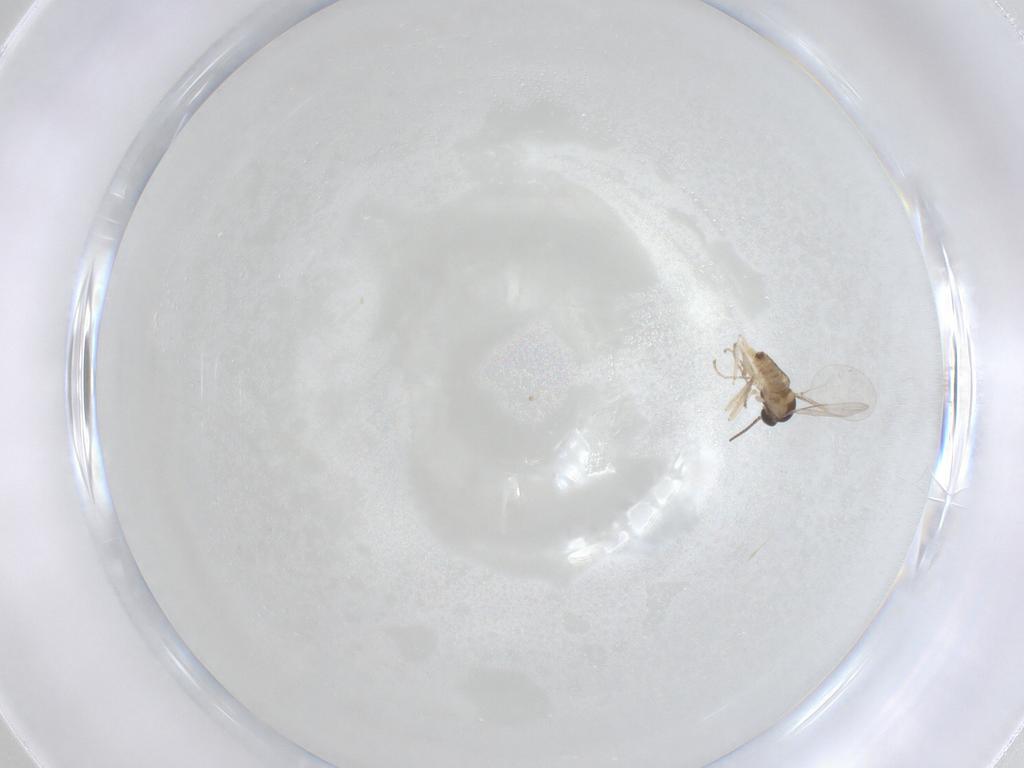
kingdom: Animalia
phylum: Arthropoda
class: Insecta
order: Diptera
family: Cecidomyiidae
